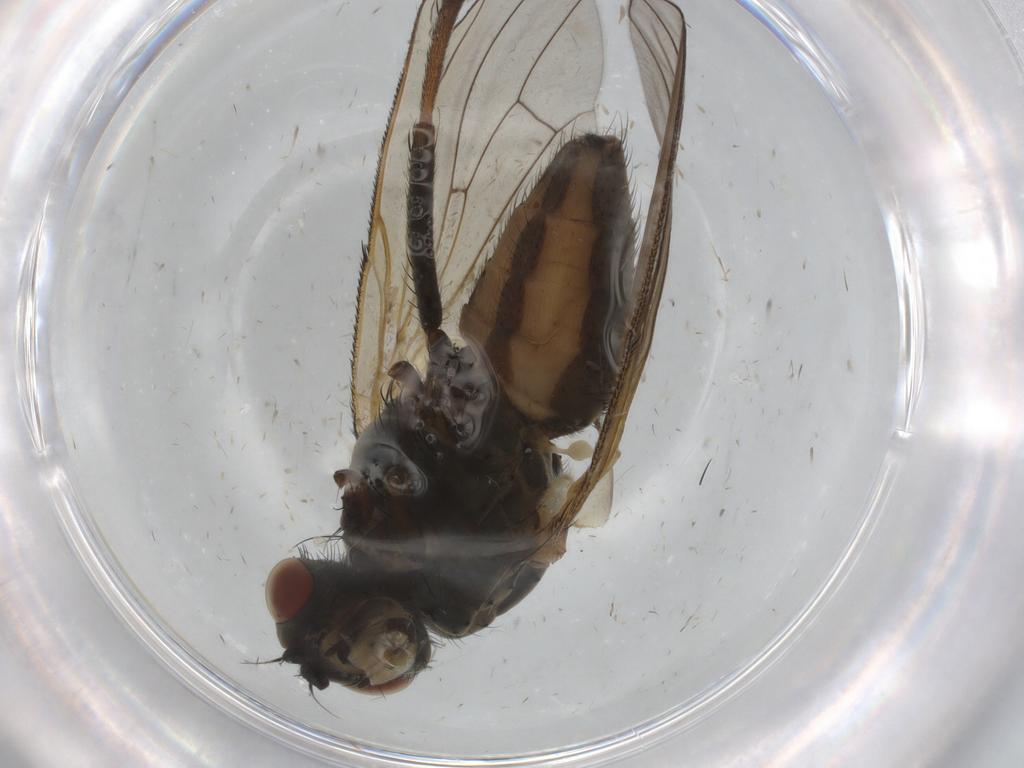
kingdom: Animalia
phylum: Arthropoda
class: Insecta
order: Diptera
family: Anthomyiidae
